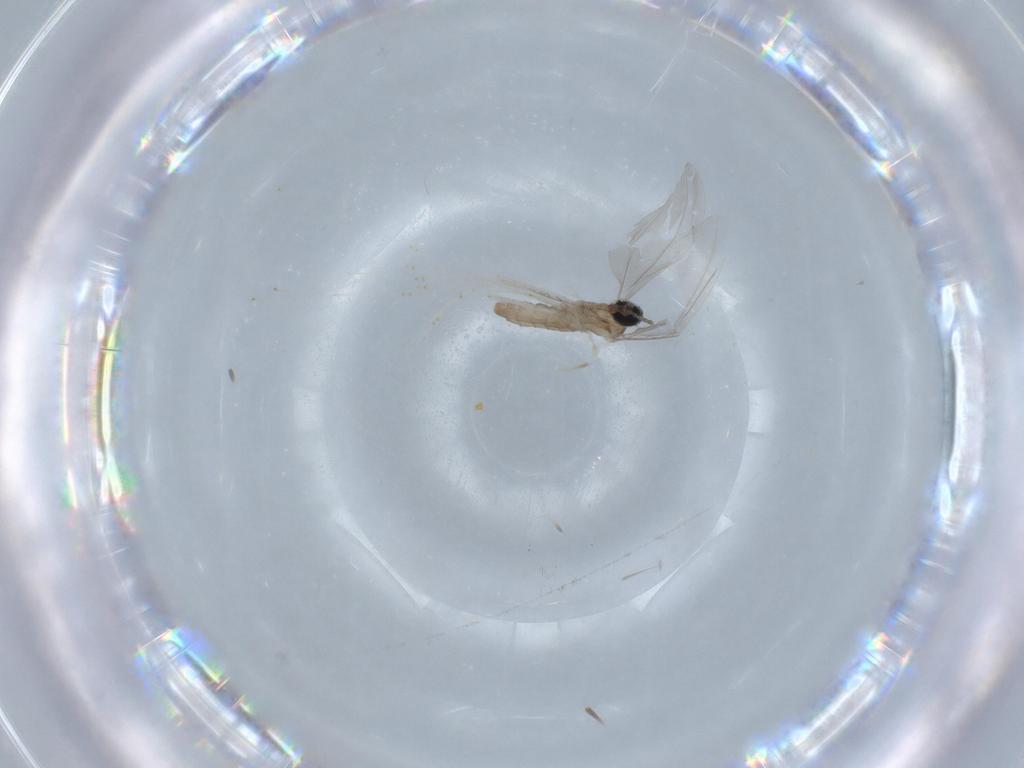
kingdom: Animalia
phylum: Arthropoda
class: Insecta
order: Diptera
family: Cecidomyiidae
